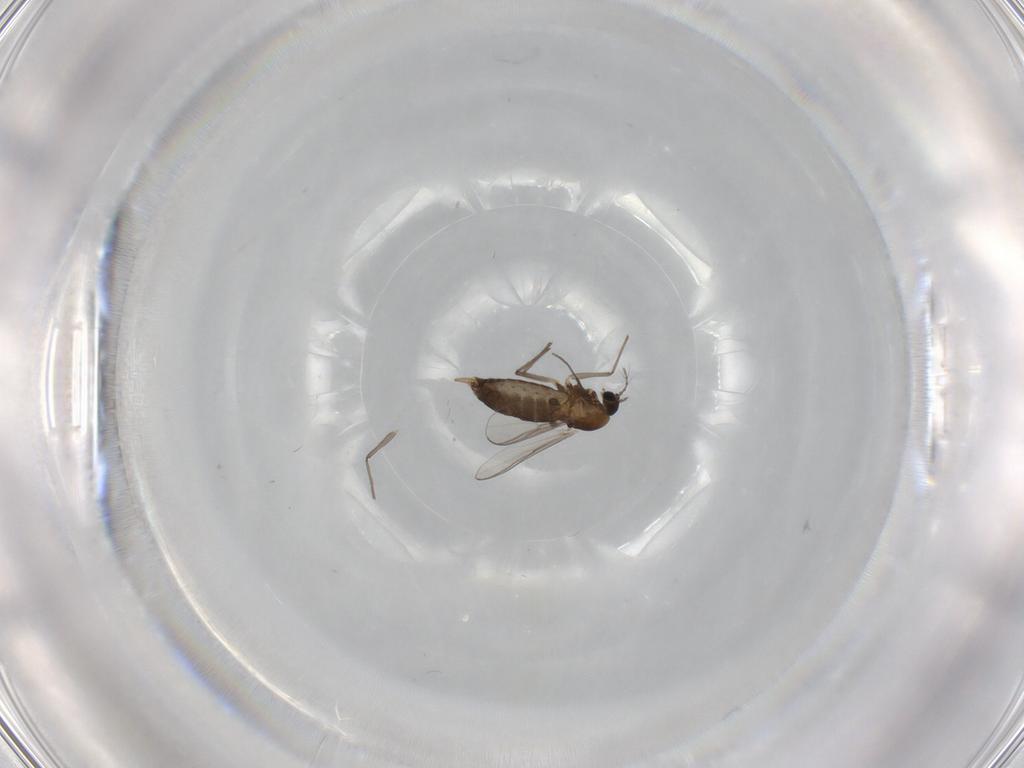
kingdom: Animalia
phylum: Arthropoda
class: Insecta
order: Diptera
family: Chironomidae
